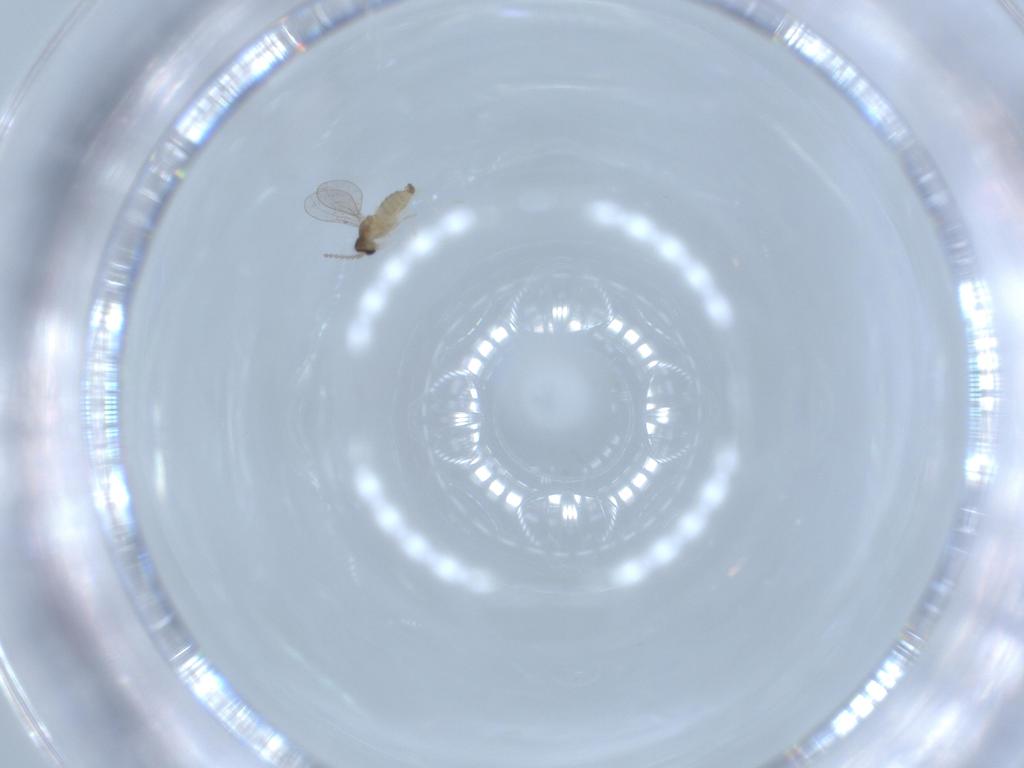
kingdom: Animalia
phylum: Arthropoda
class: Insecta
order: Diptera
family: Cecidomyiidae
